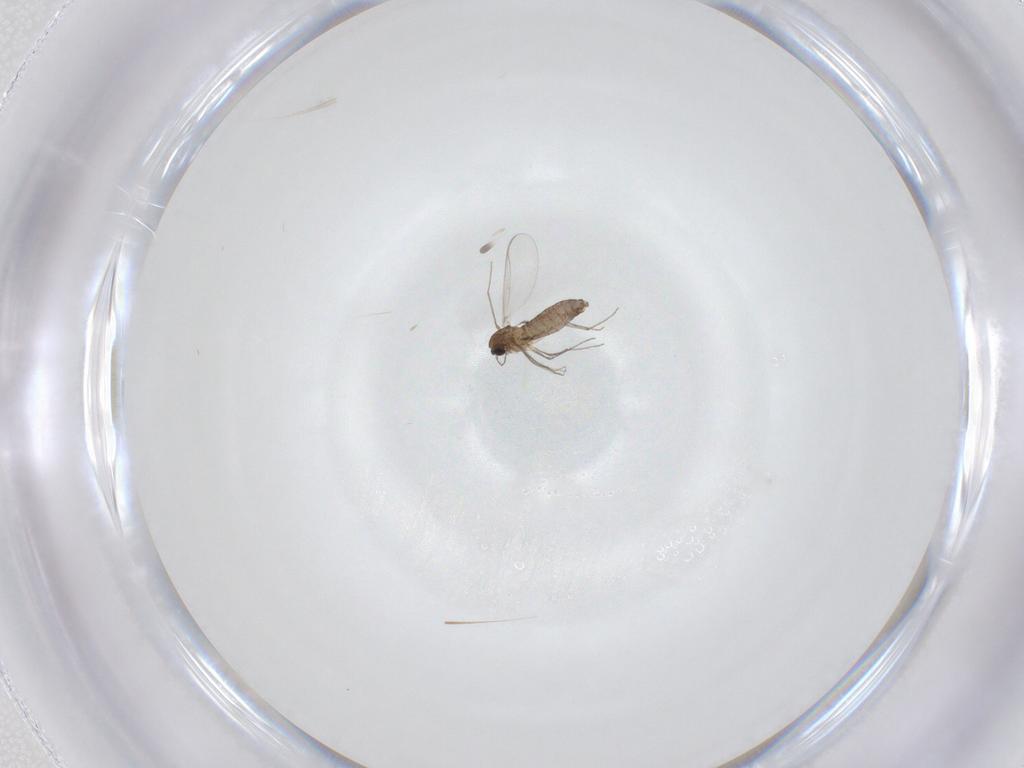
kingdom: Animalia
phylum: Arthropoda
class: Insecta
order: Diptera
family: Chironomidae
